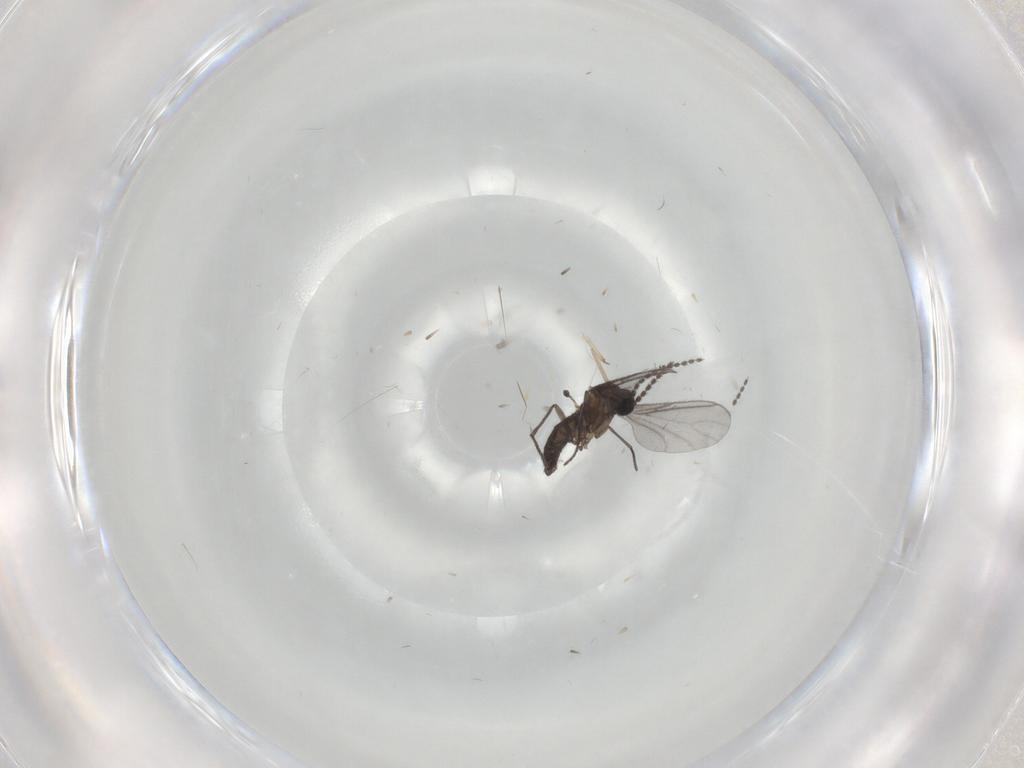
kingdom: Animalia
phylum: Arthropoda
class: Insecta
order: Diptera
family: Sciaridae
